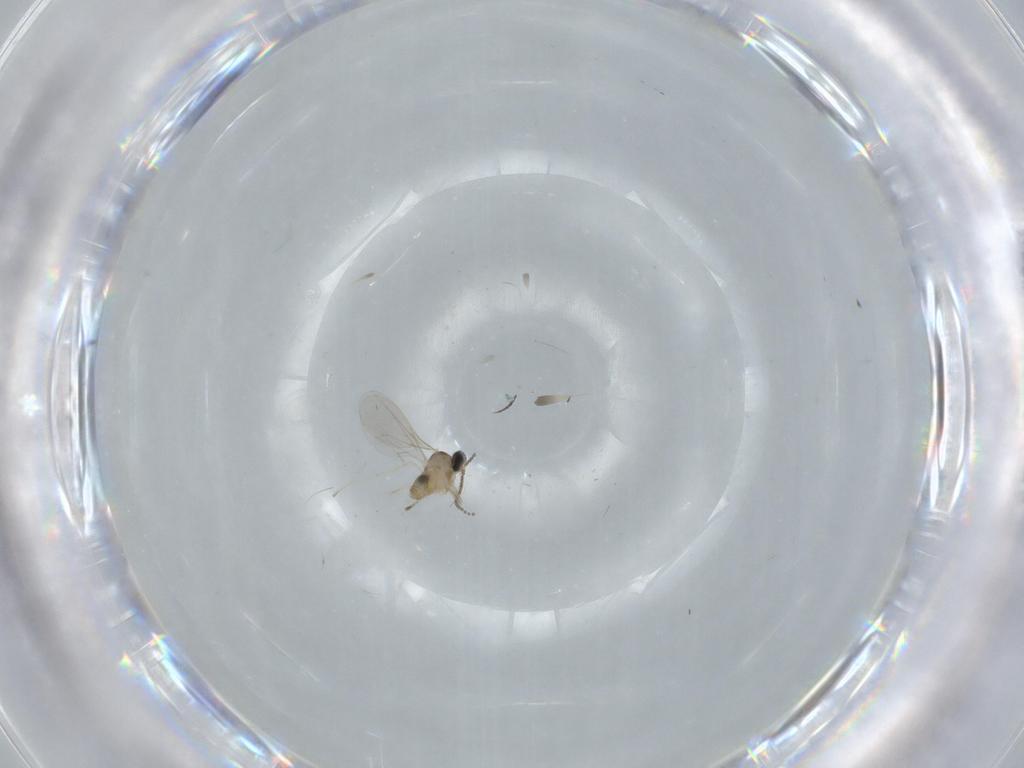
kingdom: Animalia
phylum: Arthropoda
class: Insecta
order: Diptera
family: Cecidomyiidae
